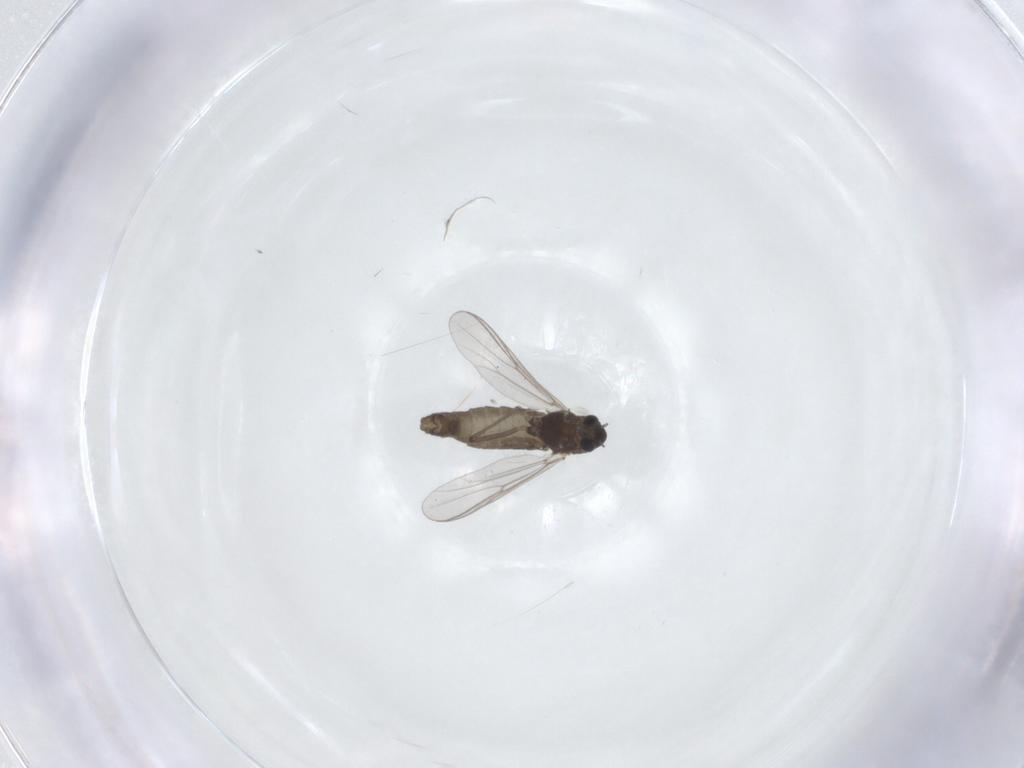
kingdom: Animalia
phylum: Arthropoda
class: Insecta
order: Diptera
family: Chironomidae
